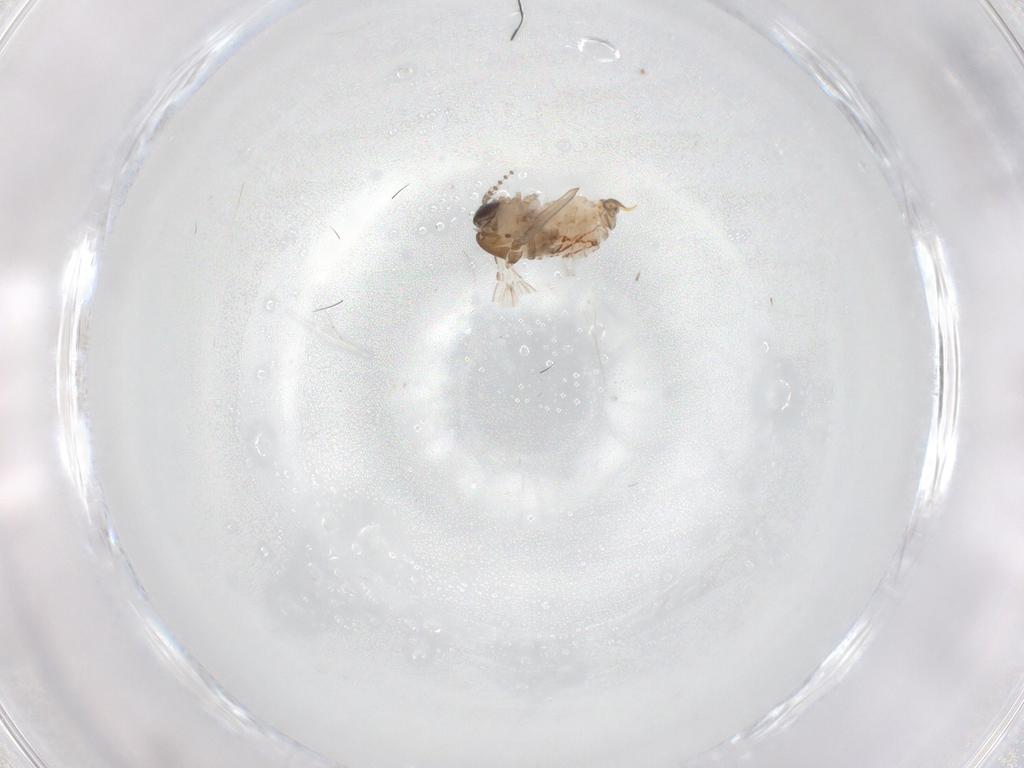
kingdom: Animalia
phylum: Arthropoda
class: Insecta
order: Diptera
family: Psychodidae
